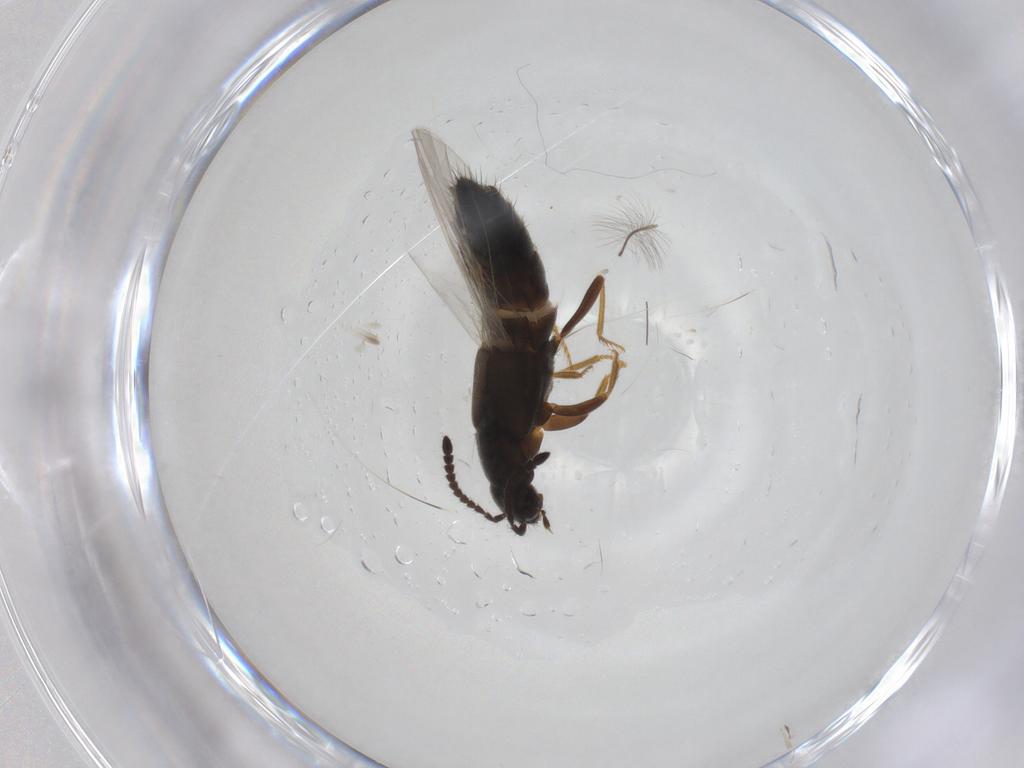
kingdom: Animalia
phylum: Arthropoda
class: Insecta
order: Coleoptera
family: Staphylinidae
